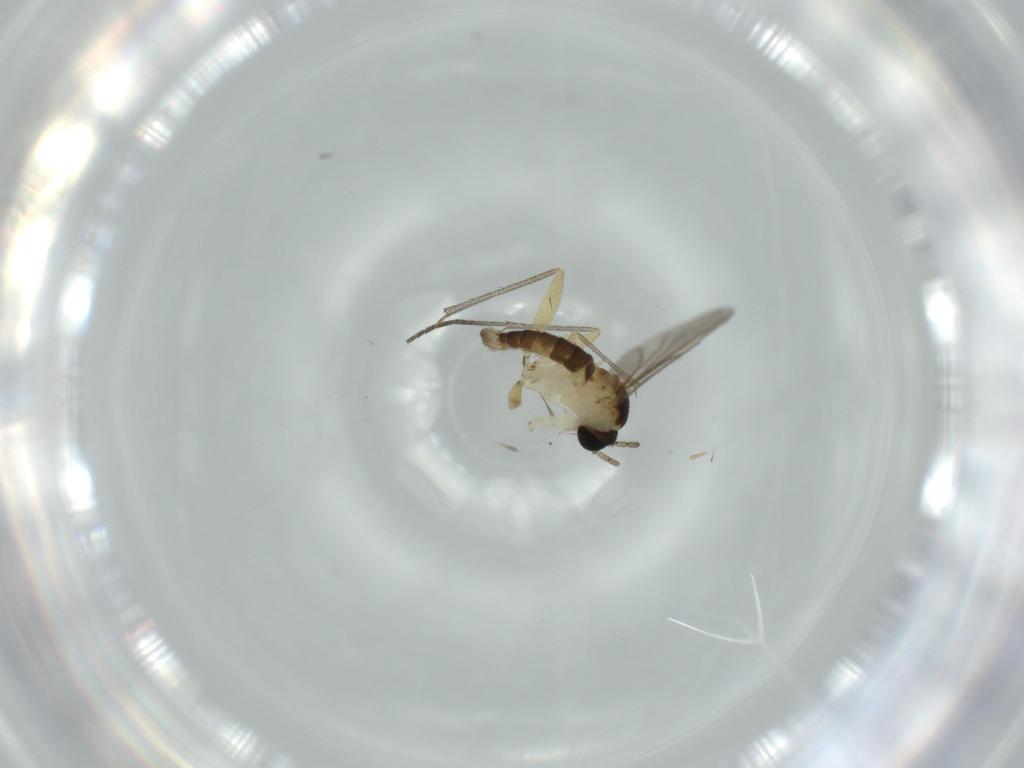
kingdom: Animalia
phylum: Arthropoda
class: Insecta
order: Diptera
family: Sciaridae
